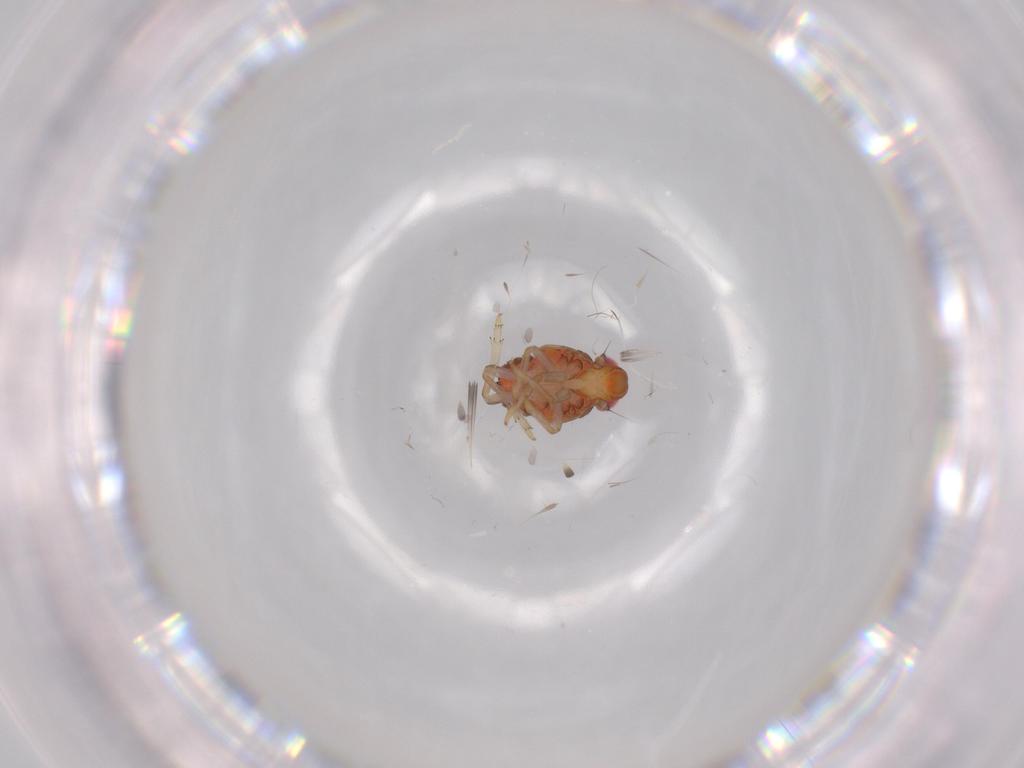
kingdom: Animalia
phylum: Arthropoda
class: Insecta
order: Hemiptera
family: Issidae
